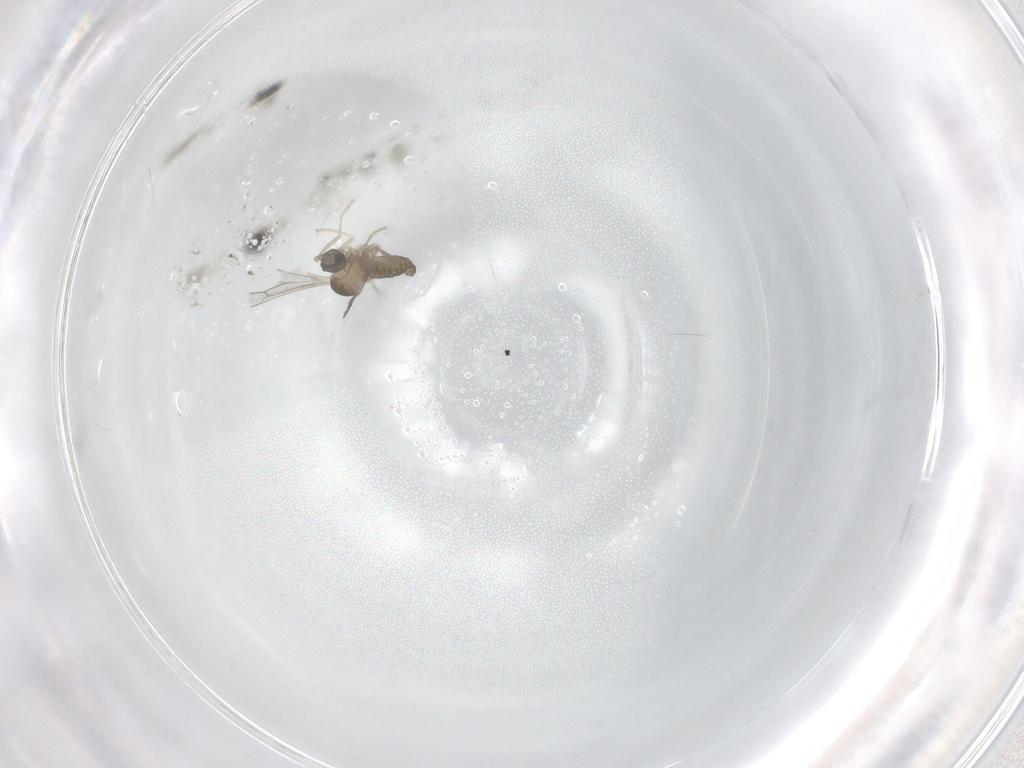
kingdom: Animalia
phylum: Arthropoda
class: Insecta
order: Diptera
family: Cecidomyiidae
